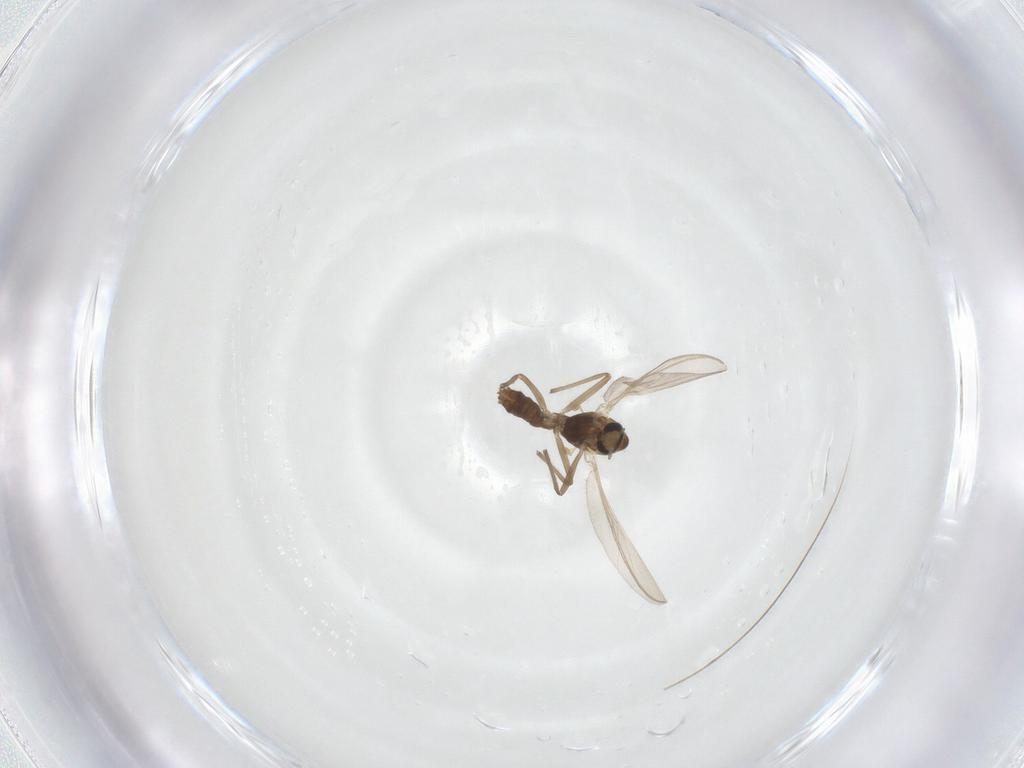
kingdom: Animalia
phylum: Arthropoda
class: Insecta
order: Diptera
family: Chironomidae
